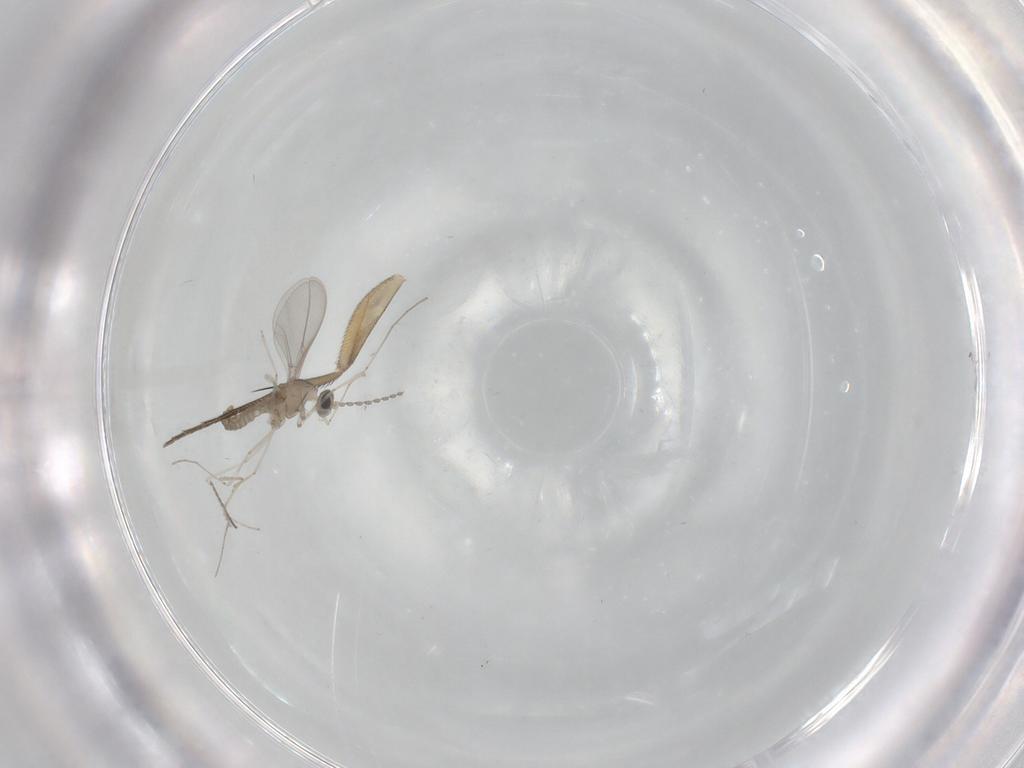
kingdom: Animalia
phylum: Arthropoda
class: Insecta
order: Diptera
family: Cecidomyiidae
